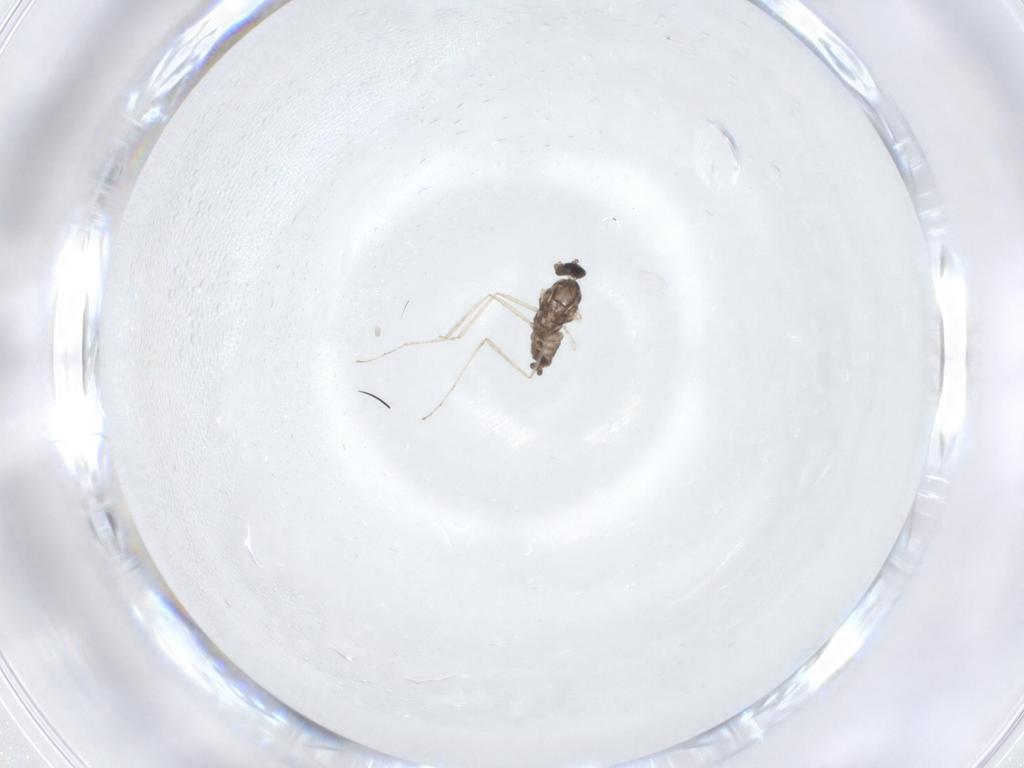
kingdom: Animalia
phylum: Arthropoda
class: Insecta
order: Diptera
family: Cecidomyiidae
